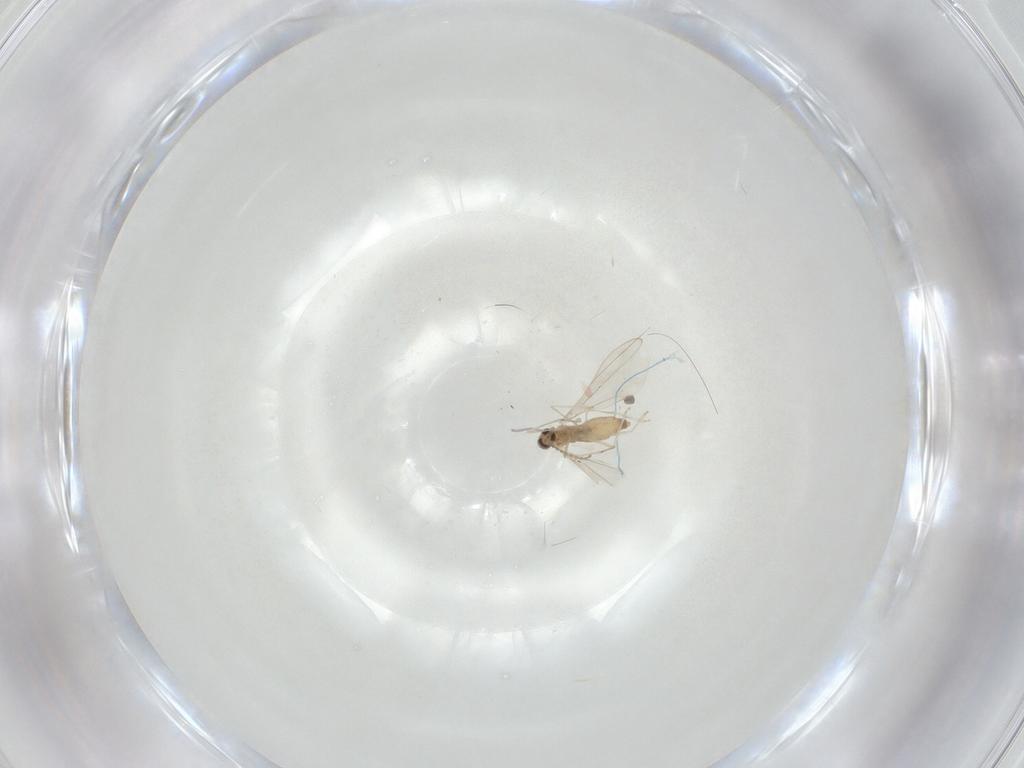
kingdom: Animalia
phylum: Arthropoda
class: Insecta
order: Diptera
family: Cecidomyiidae
